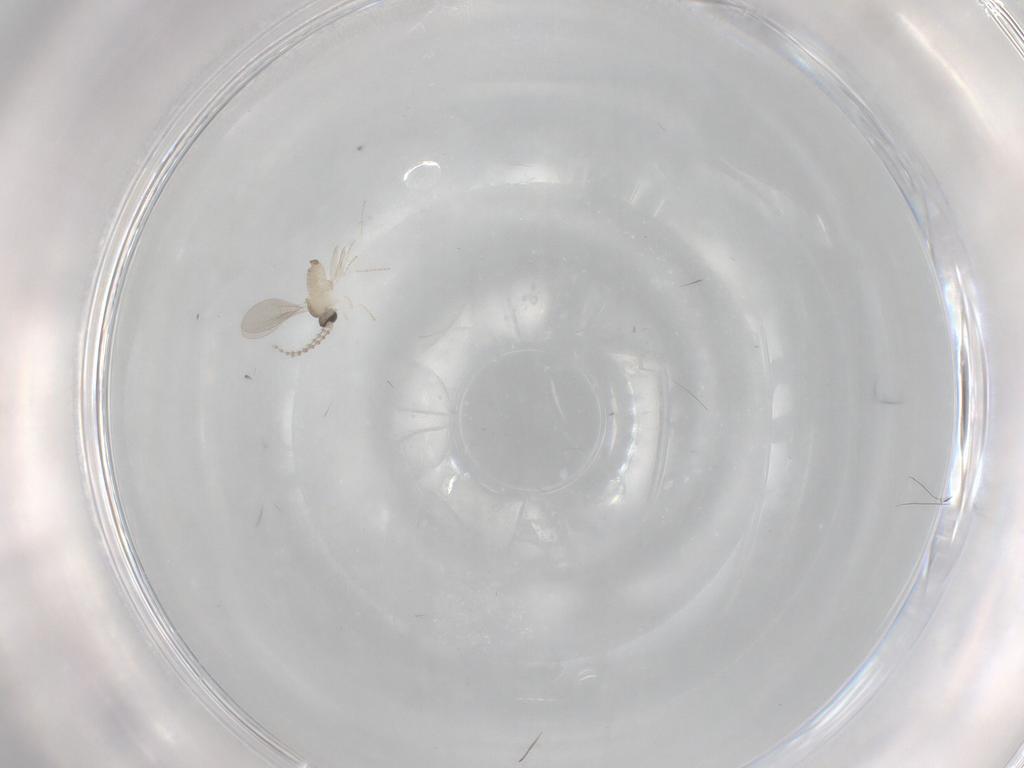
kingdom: Animalia
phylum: Arthropoda
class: Insecta
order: Diptera
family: Cecidomyiidae
